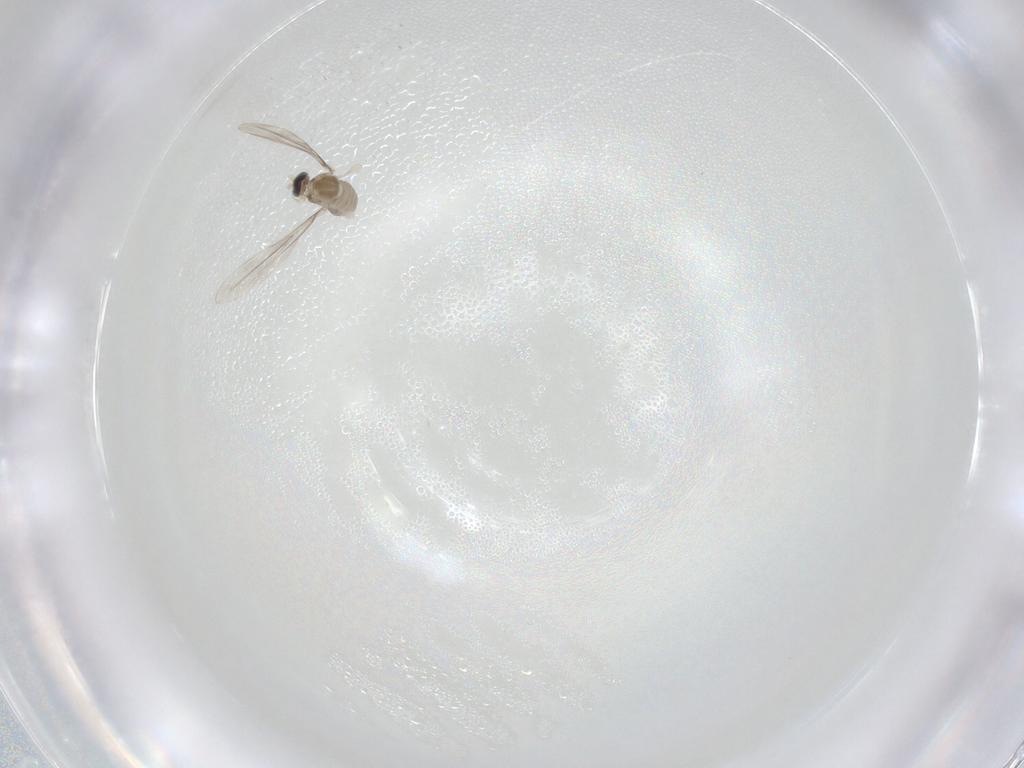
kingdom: Animalia
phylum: Arthropoda
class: Insecta
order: Diptera
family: Cecidomyiidae
